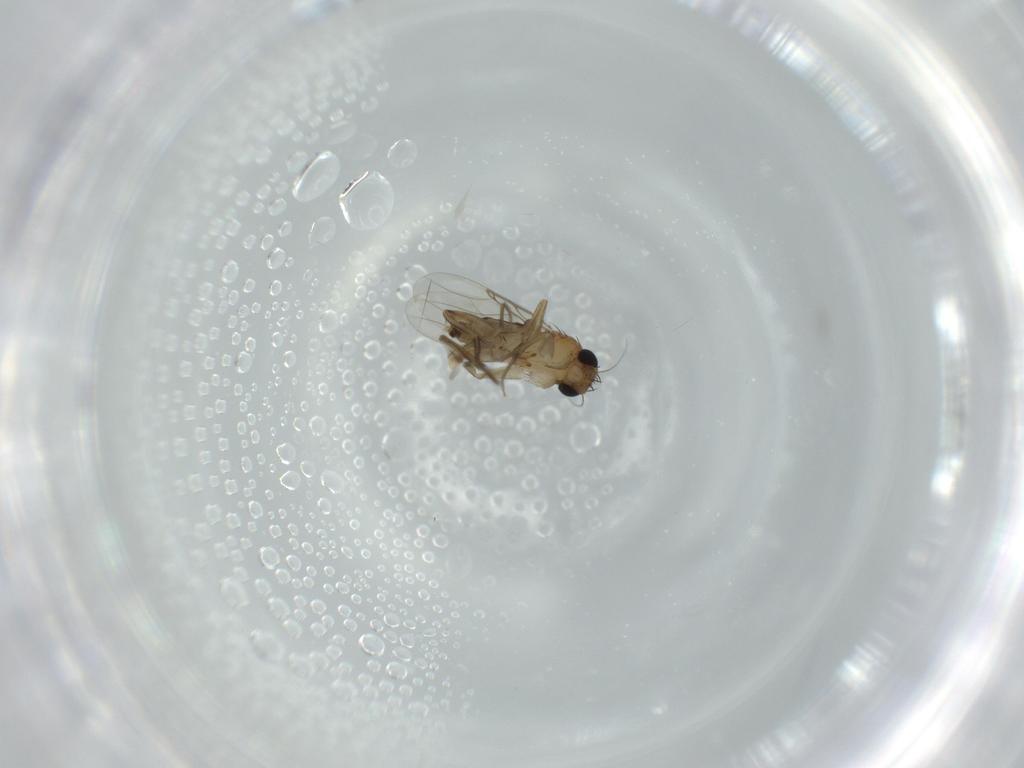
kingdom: Animalia
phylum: Arthropoda
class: Insecta
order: Diptera
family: Phoridae
